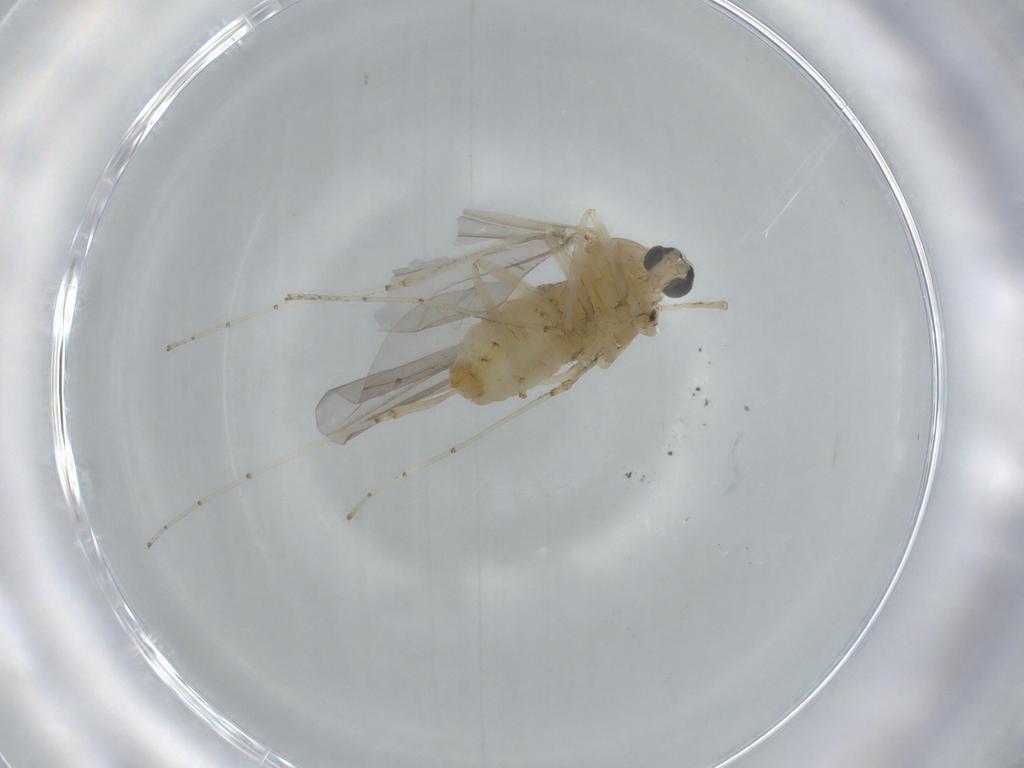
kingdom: Animalia
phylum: Arthropoda
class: Insecta
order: Diptera
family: Cecidomyiidae
